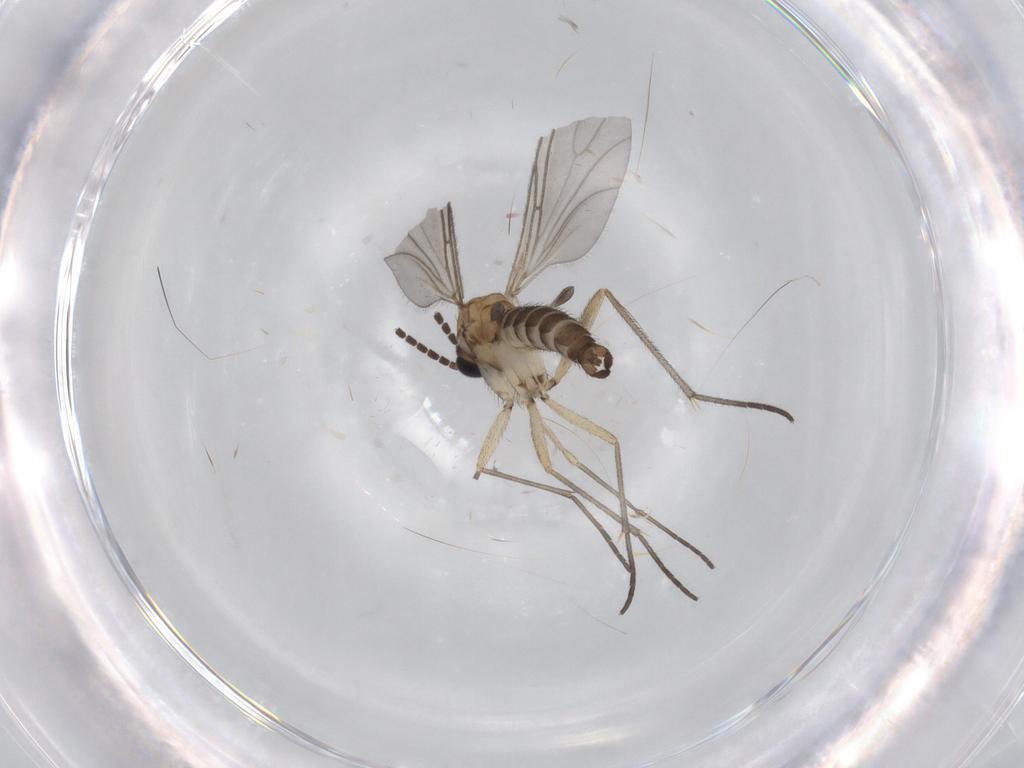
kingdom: Animalia
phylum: Arthropoda
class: Insecta
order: Diptera
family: Sciaridae
